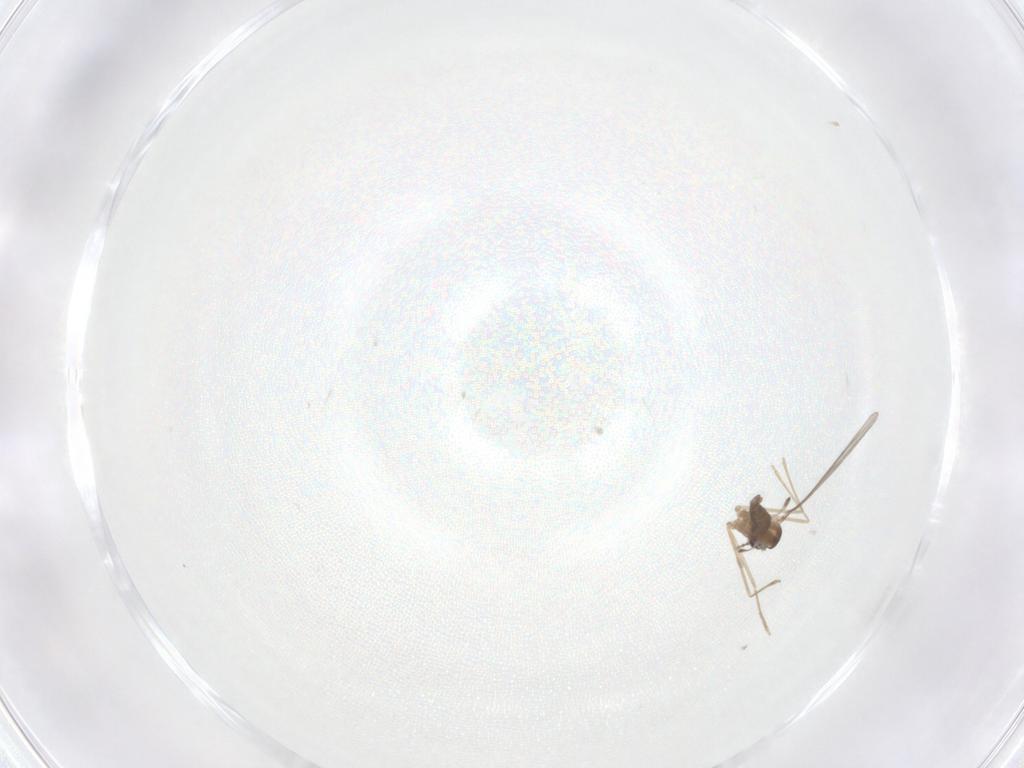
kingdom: Animalia
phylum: Arthropoda
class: Insecta
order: Diptera
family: Cecidomyiidae
